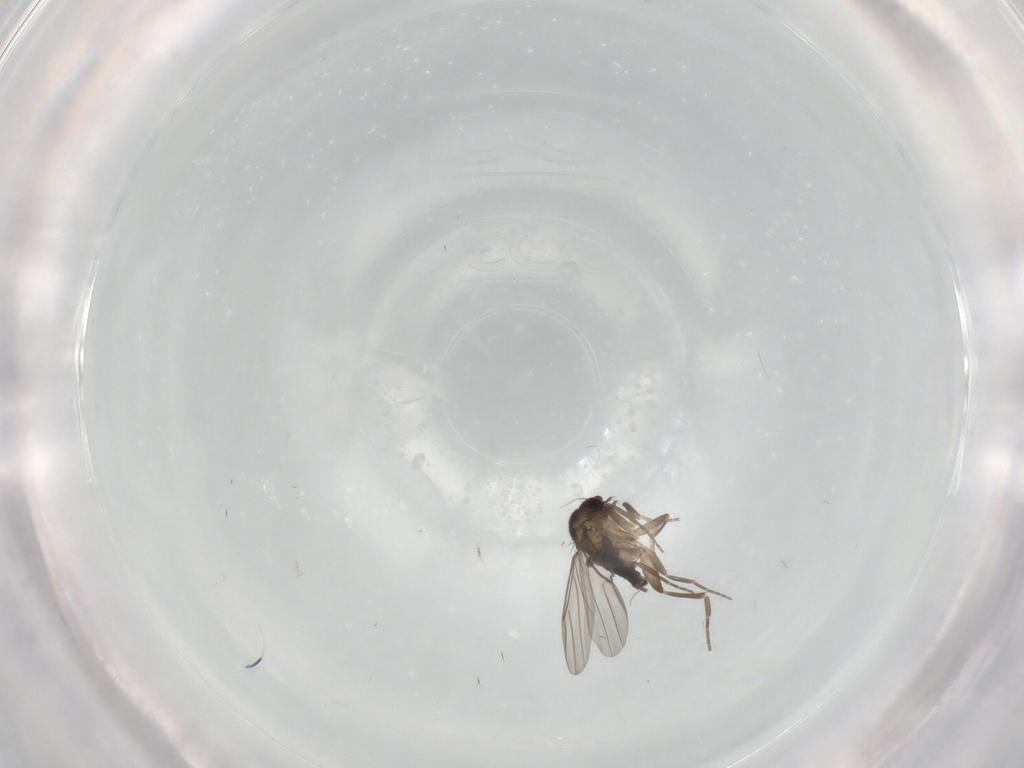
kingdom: Animalia
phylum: Arthropoda
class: Insecta
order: Diptera
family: Phoridae
